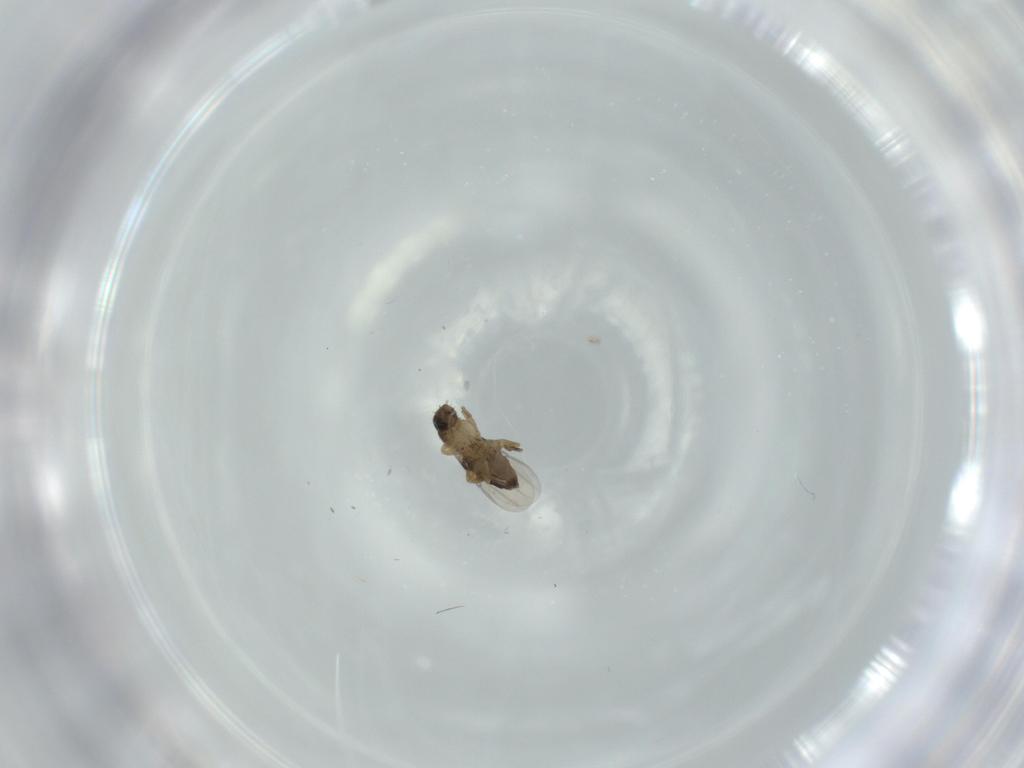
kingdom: Animalia
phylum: Arthropoda
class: Insecta
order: Diptera
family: Phoridae
